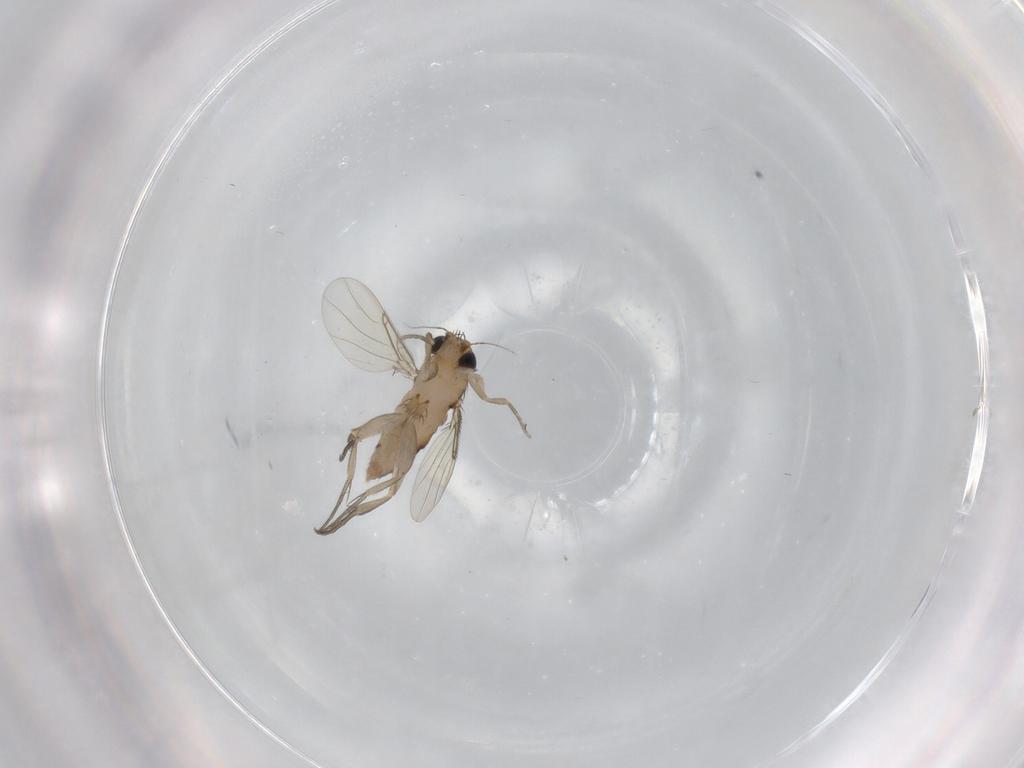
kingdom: Animalia
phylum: Arthropoda
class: Insecta
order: Diptera
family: Phoridae
